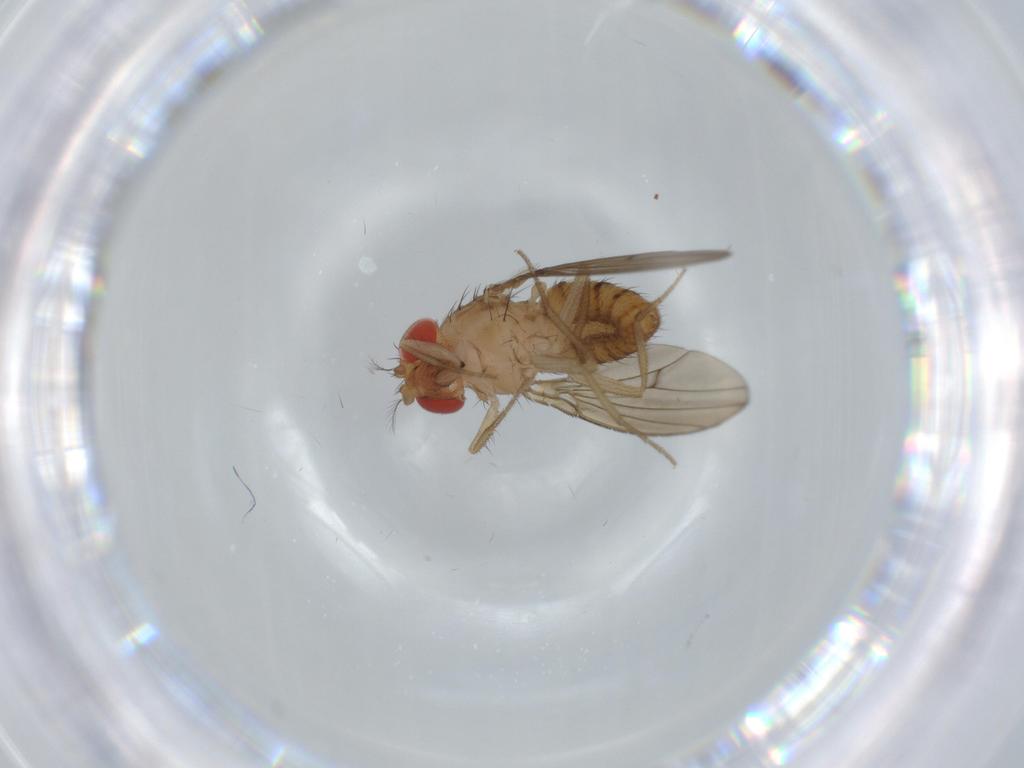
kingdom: Animalia
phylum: Arthropoda
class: Insecta
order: Diptera
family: Drosophilidae
